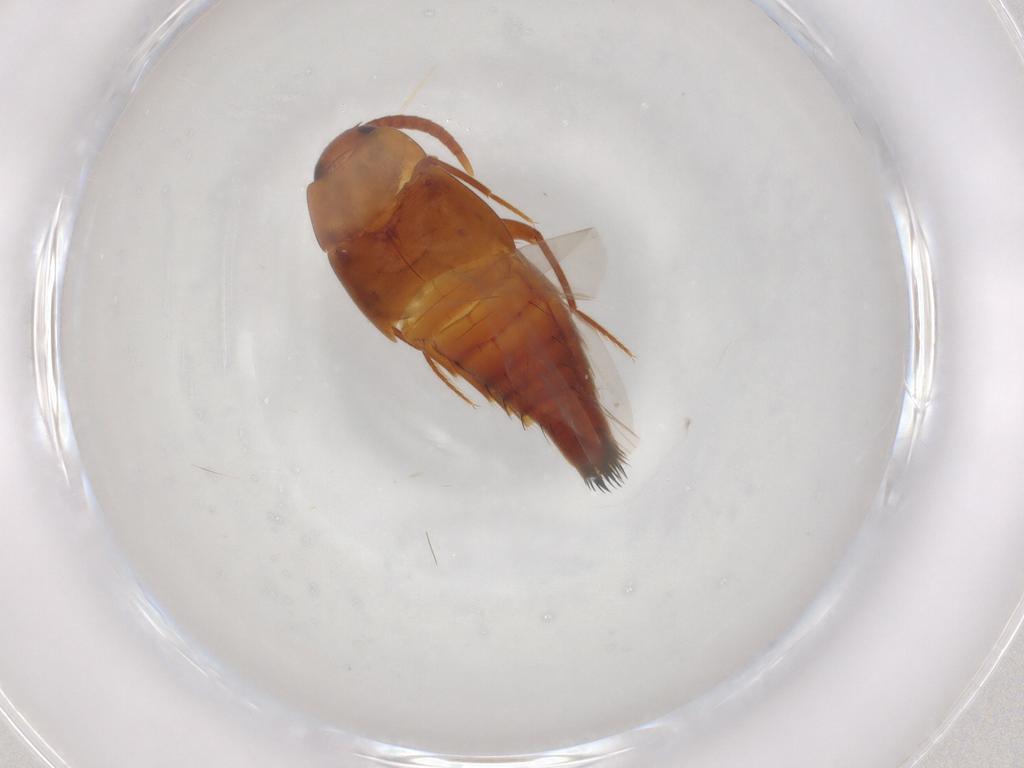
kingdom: Animalia
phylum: Arthropoda
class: Insecta
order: Coleoptera
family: Staphylinidae
